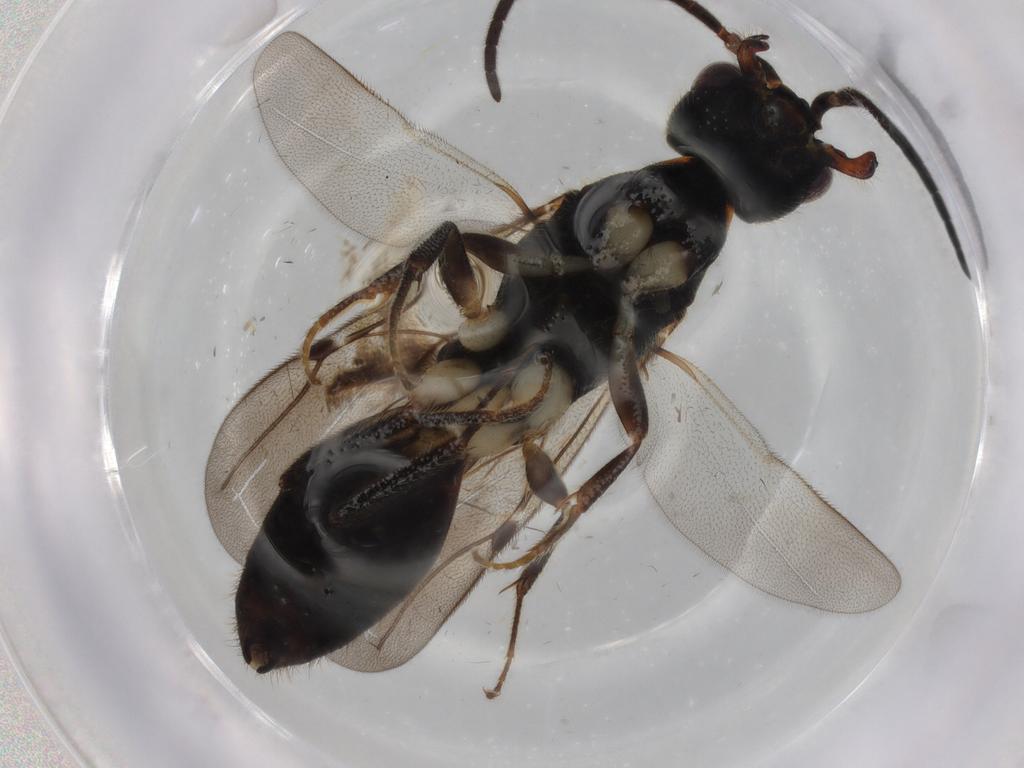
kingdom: Animalia
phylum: Arthropoda
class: Insecta
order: Hymenoptera
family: Bethylidae
